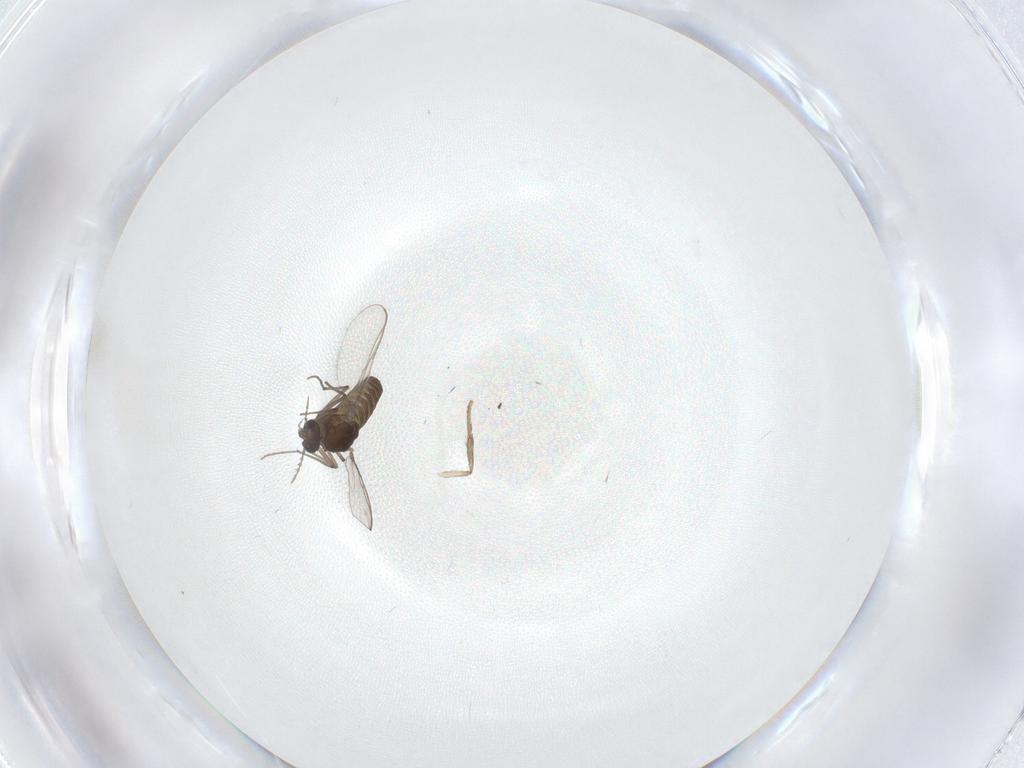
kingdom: Animalia
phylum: Arthropoda
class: Insecta
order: Diptera
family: Chironomidae
